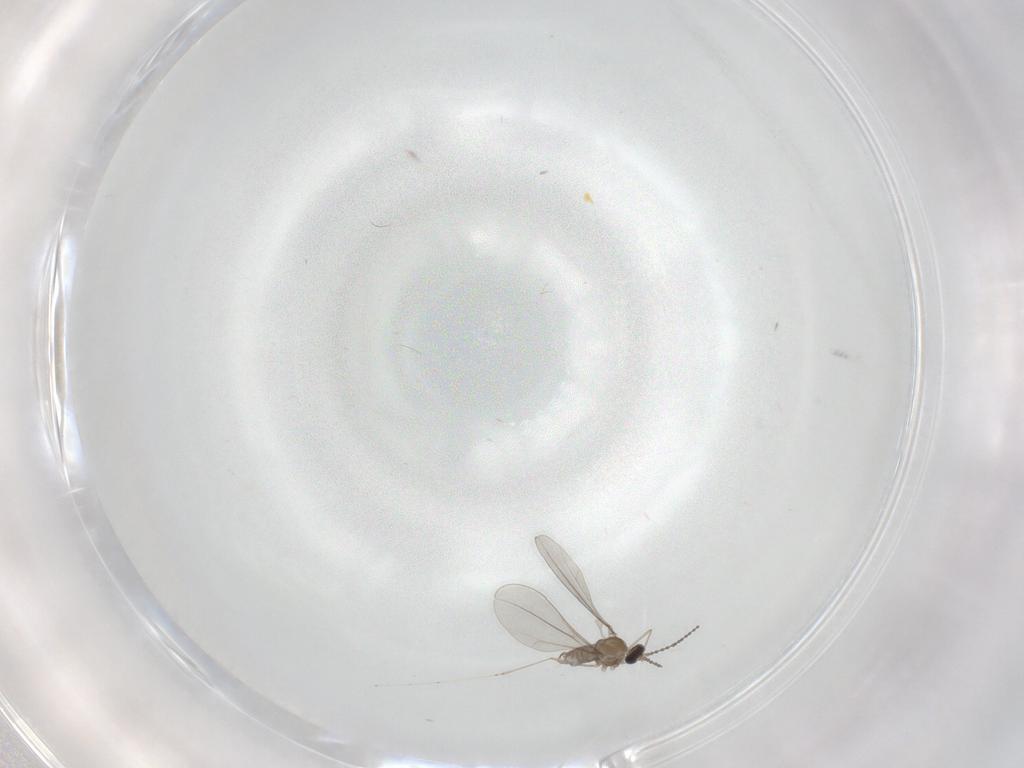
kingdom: Animalia
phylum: Arthropoda
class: Insecta
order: Diptera
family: Cecidomyiidae
